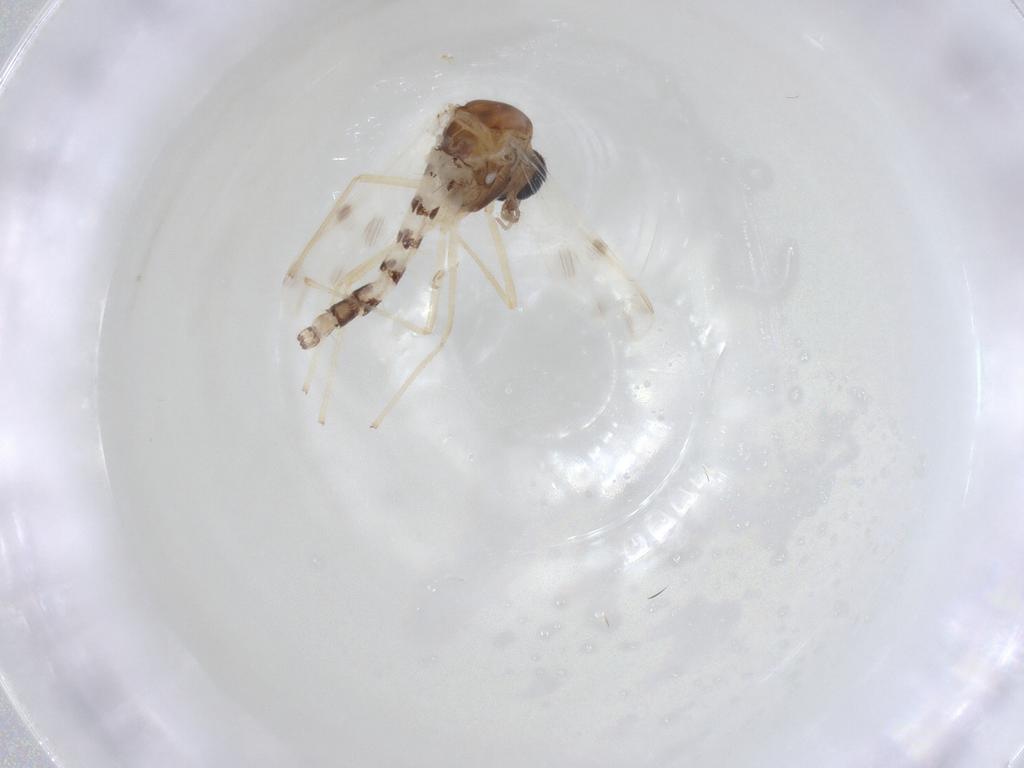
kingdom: Animalia
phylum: Arthropoda
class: Insecta
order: Diptera
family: Chironomidae
